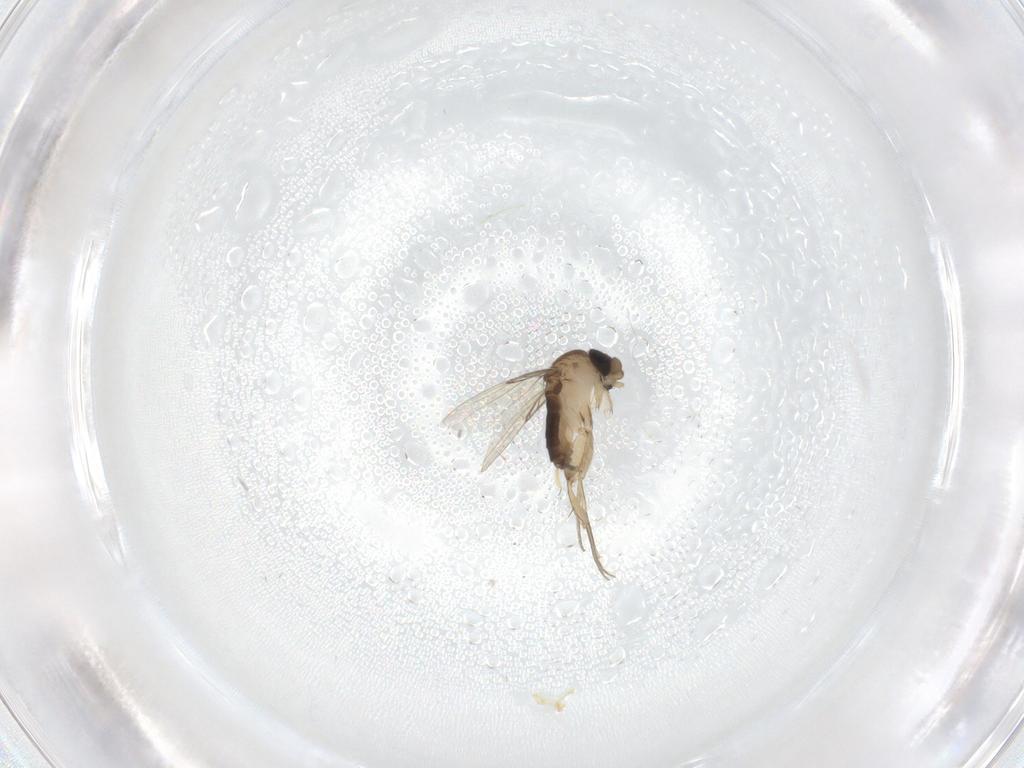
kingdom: Animalia
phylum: Arthropoda
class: Insecta
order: Diptera
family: Phoridae
